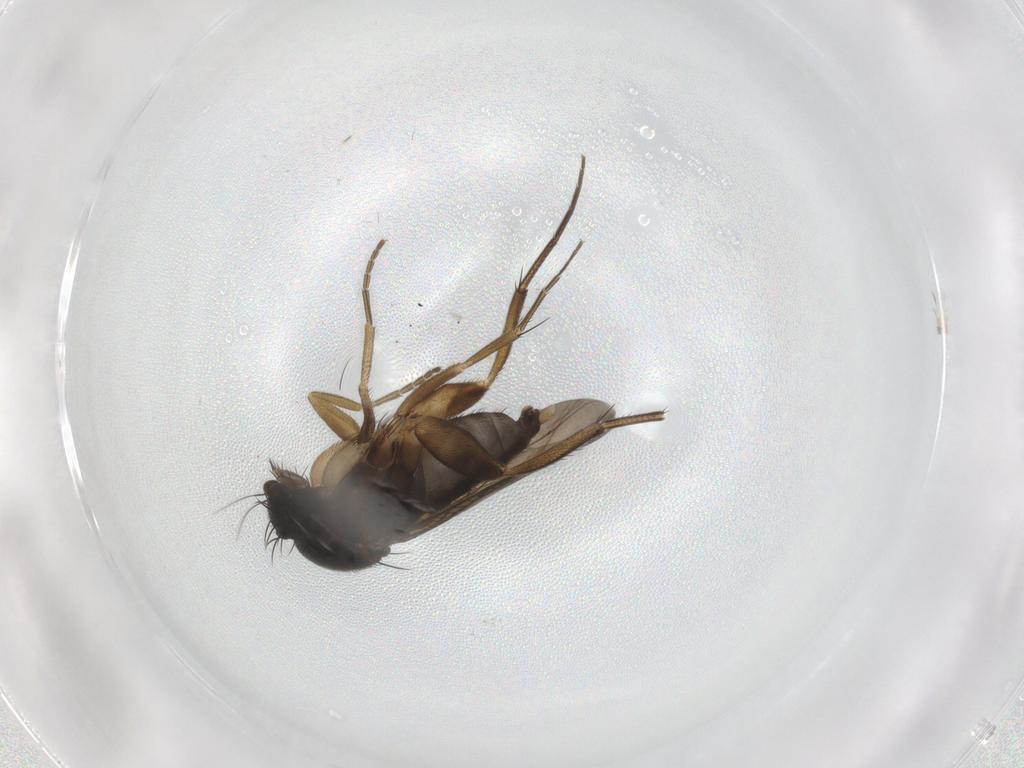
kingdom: Animalia
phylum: Arthropoda
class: Insecta
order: Diptera
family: Phoridae
